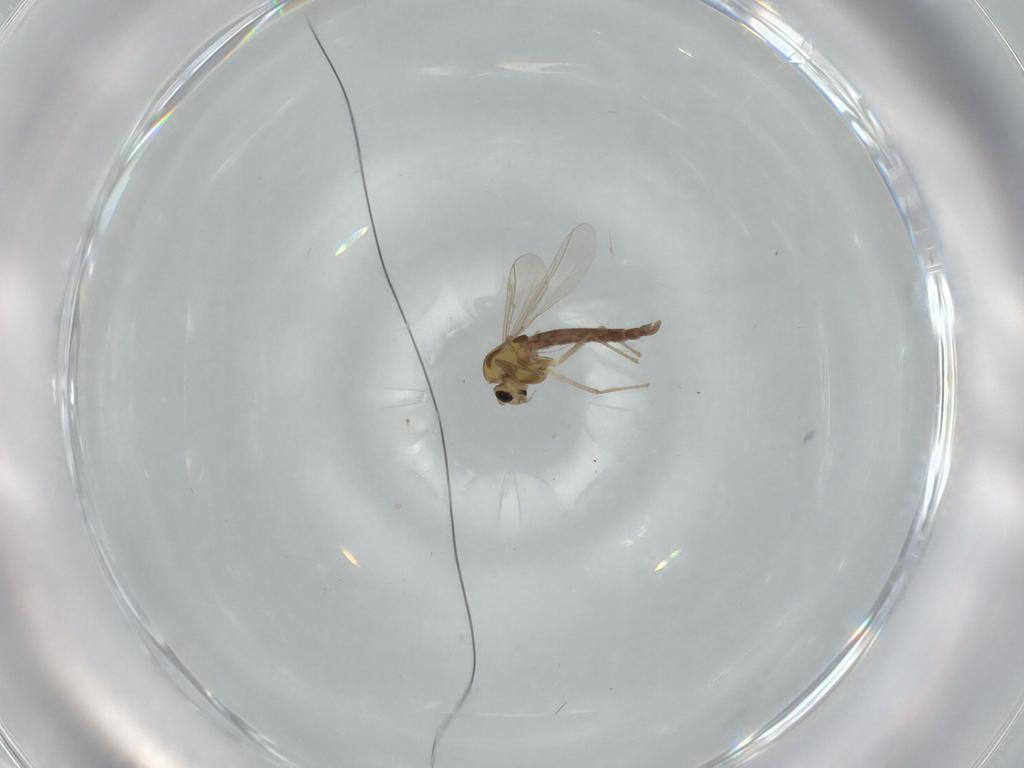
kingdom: Animalia
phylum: Arthropoda
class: Insecta
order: Diptera
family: Chironomidae
